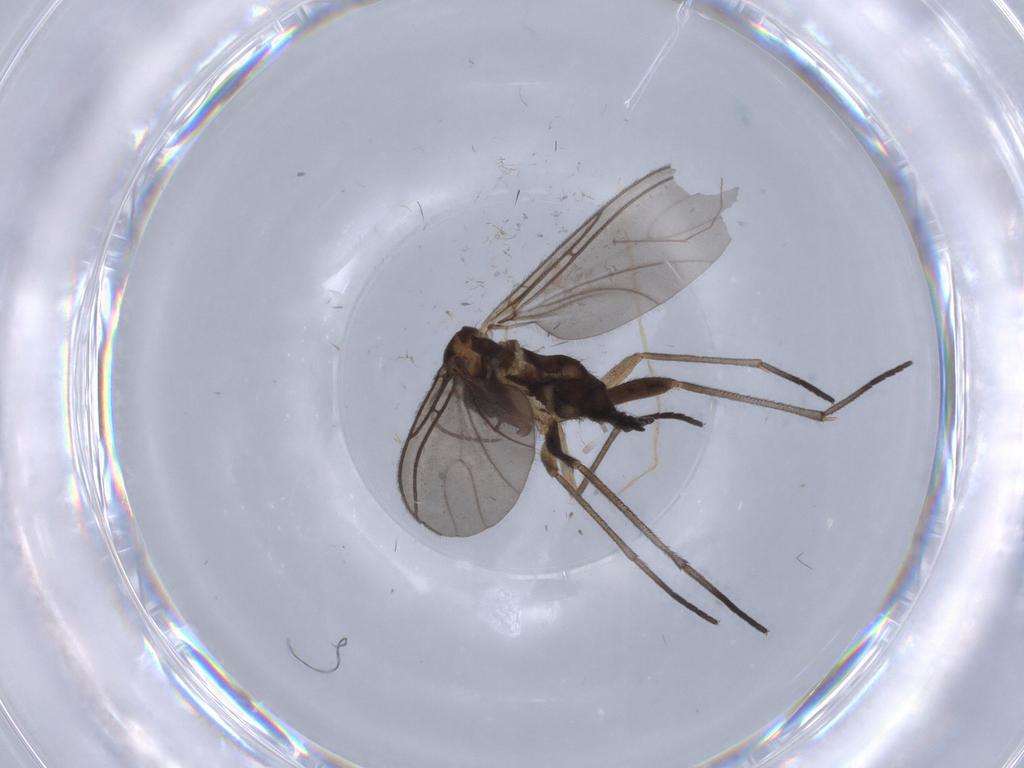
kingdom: Animalia
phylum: Arthropoda
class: Insecta
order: Diptera
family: Sciaridae
